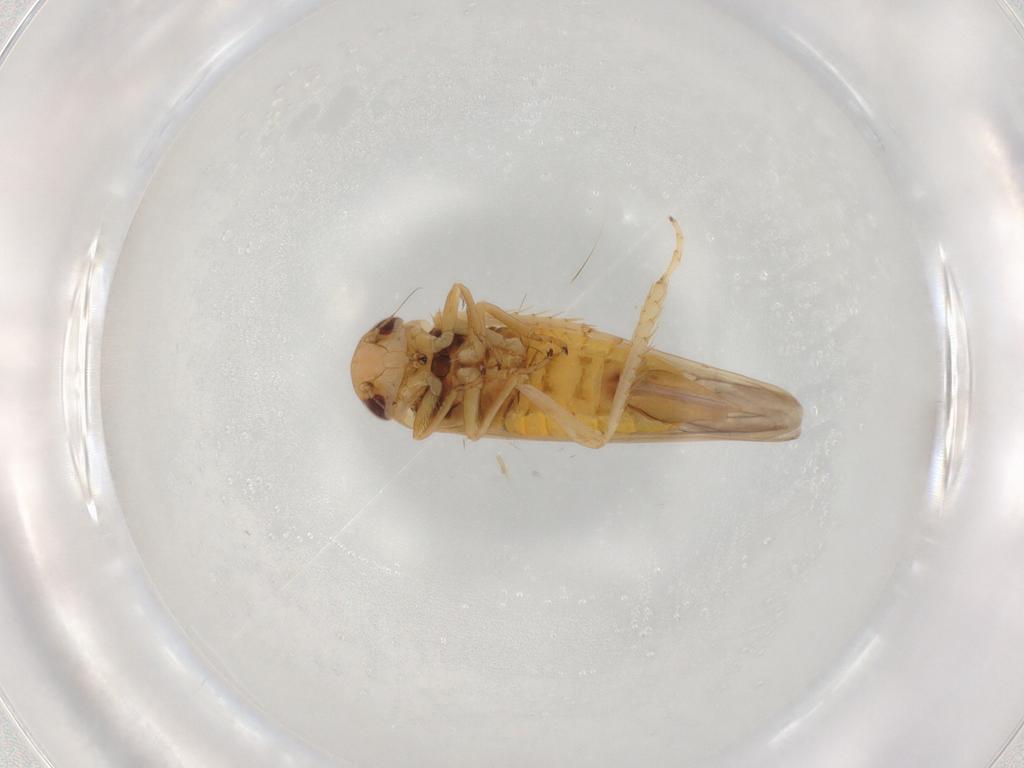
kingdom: Animalia
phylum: Arthropoda
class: Insecta
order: Hemiptera
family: Cicadellidae
